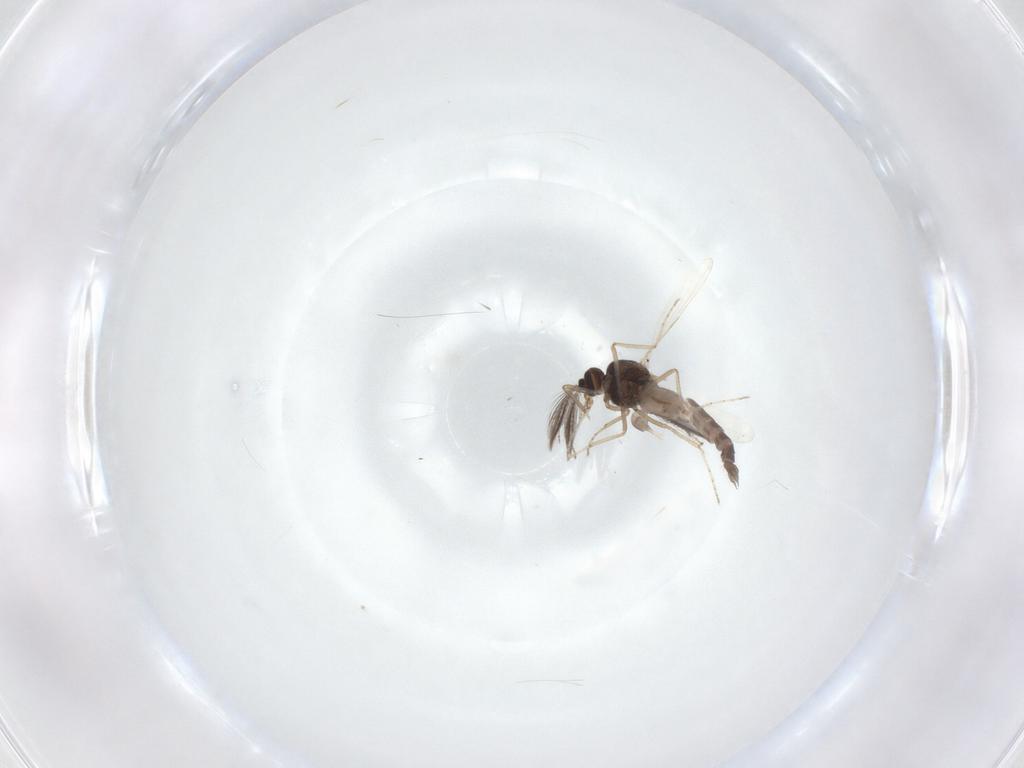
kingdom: Animalia
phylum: Arthropoda
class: Insecta
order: Diptera
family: Ceratopogonidae
